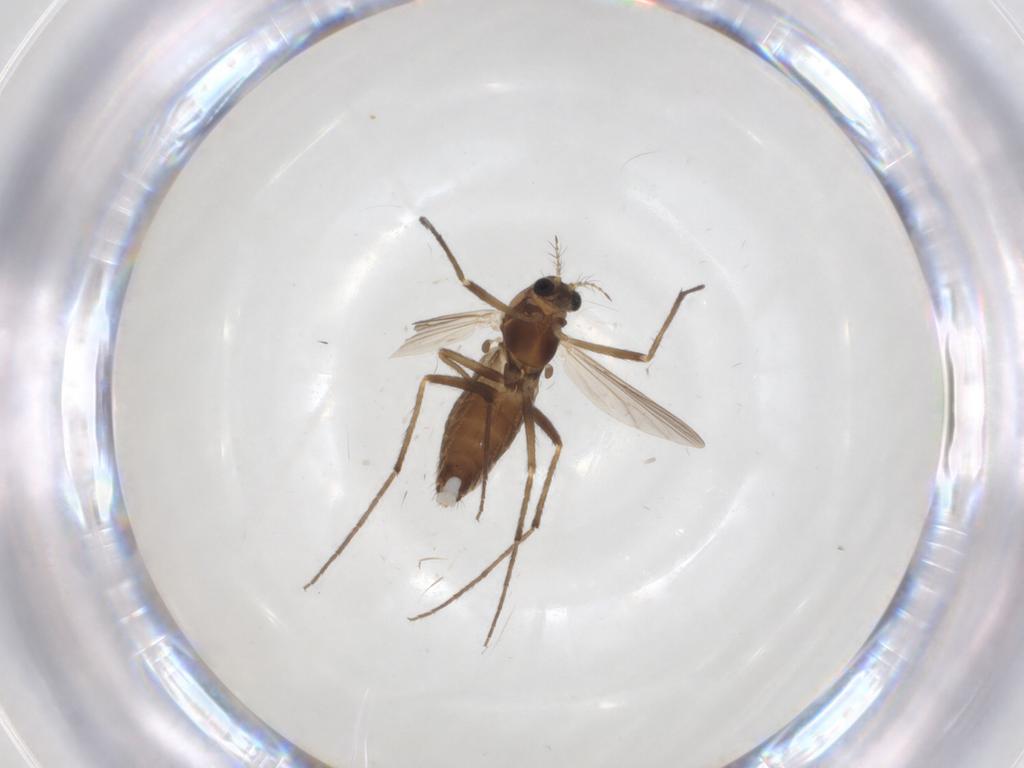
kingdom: Animalia
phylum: Arthropoda
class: Insecta
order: Diptera
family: Chironomidae
